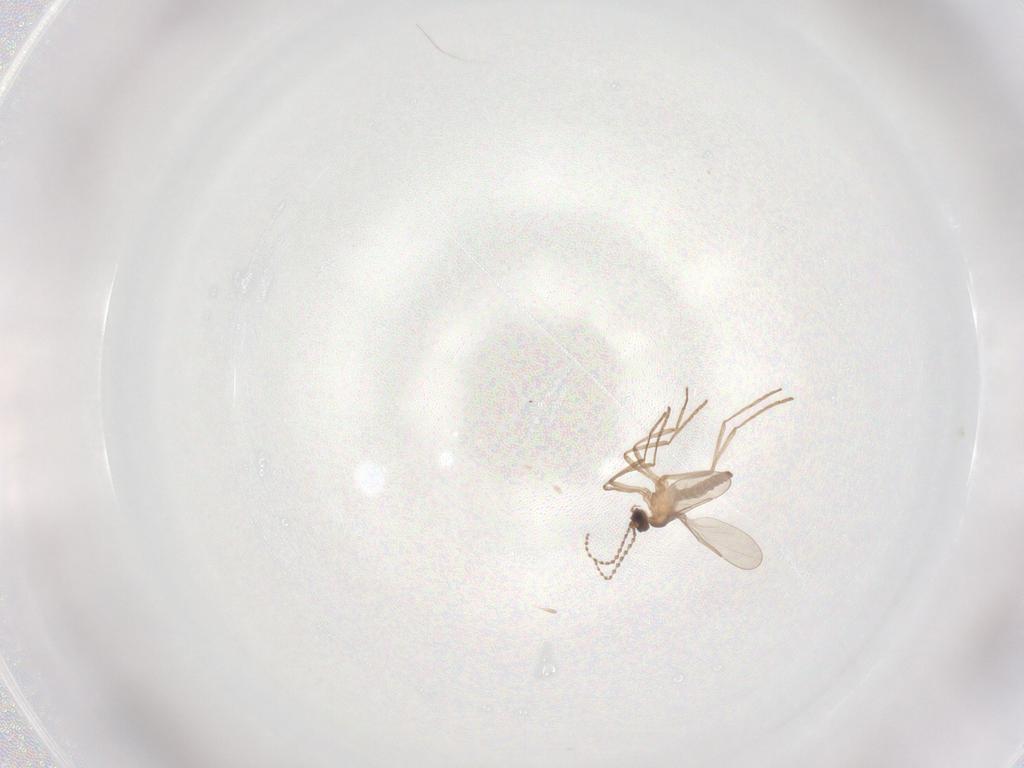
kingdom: Animalia
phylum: Arthropoda
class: Insecta
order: Diptera
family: Cecidomyiidae
